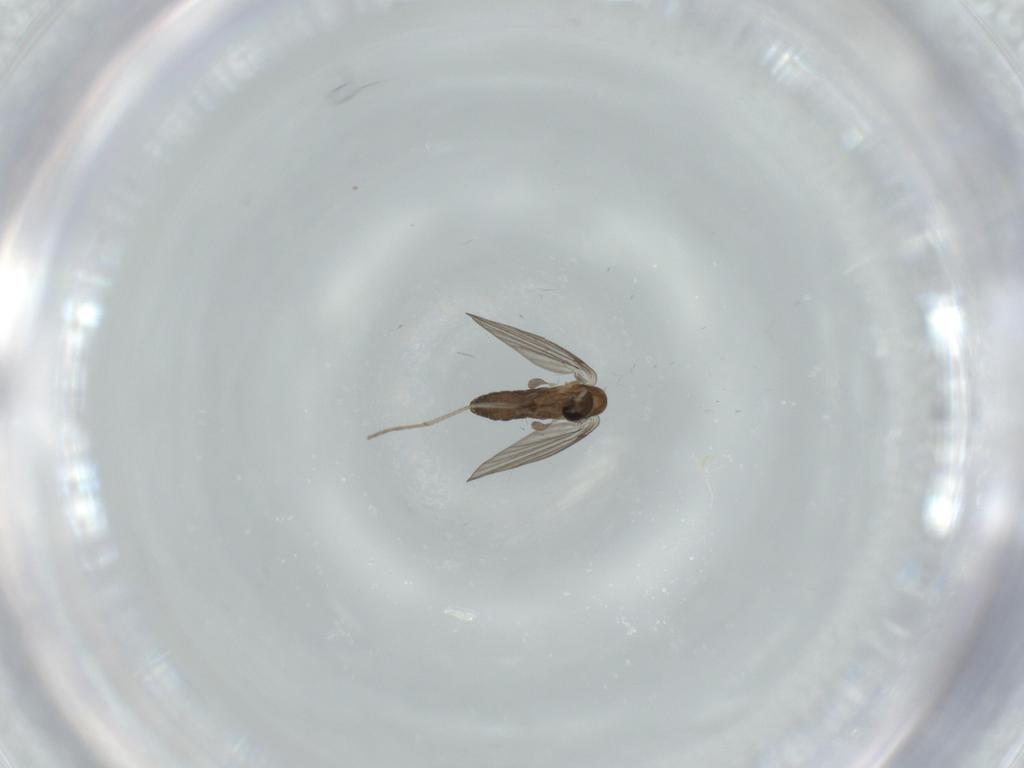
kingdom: Animalia
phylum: Arthropoda
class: Insecta
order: Diptera
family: Psychodidae
